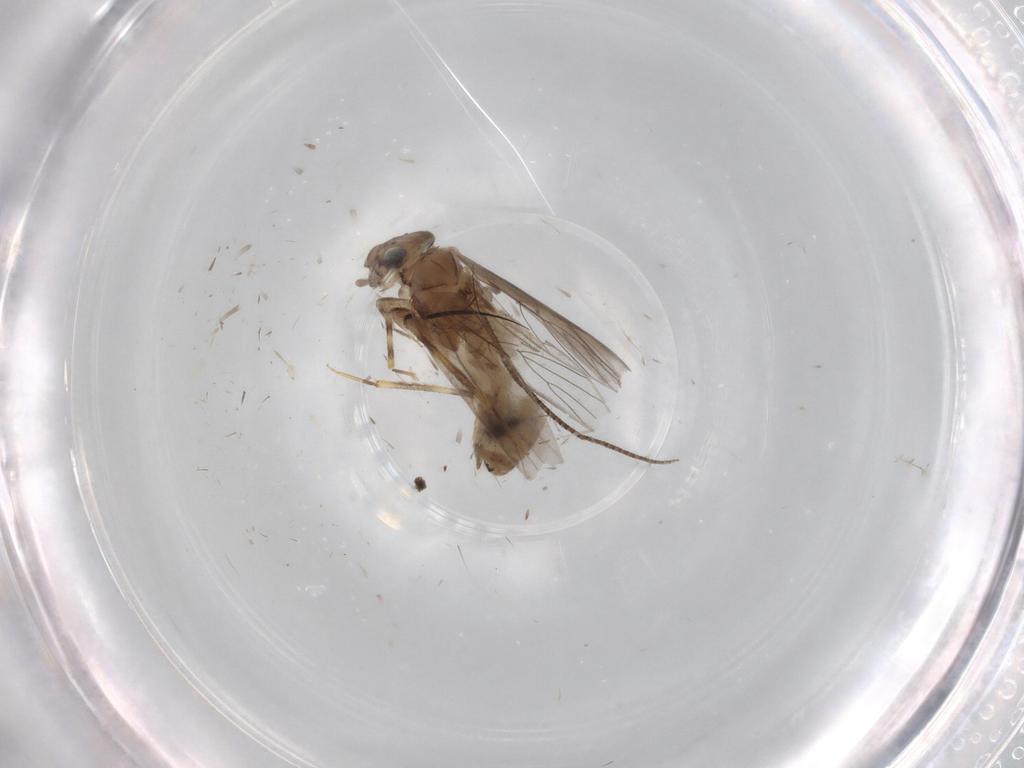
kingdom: Animalia
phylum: Arthropoda
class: Insecta
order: Psocodea
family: Lepidopsocidae
